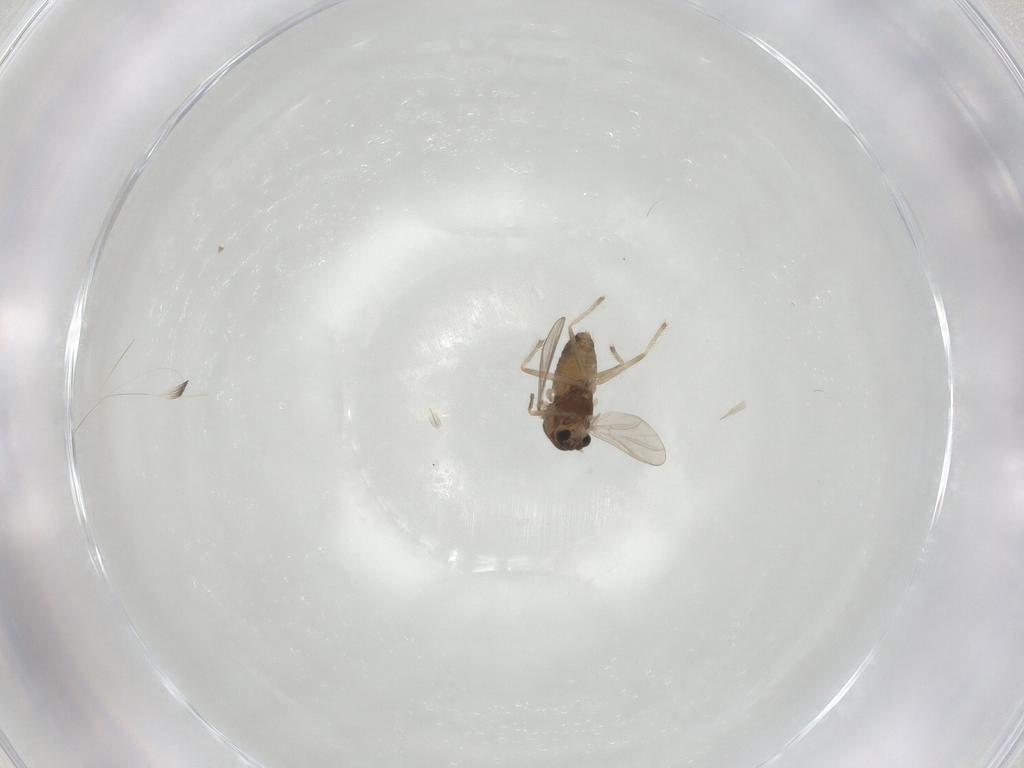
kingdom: Animalia
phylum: Arthropoda
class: Insecta
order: Diptera
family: Chironomidae
